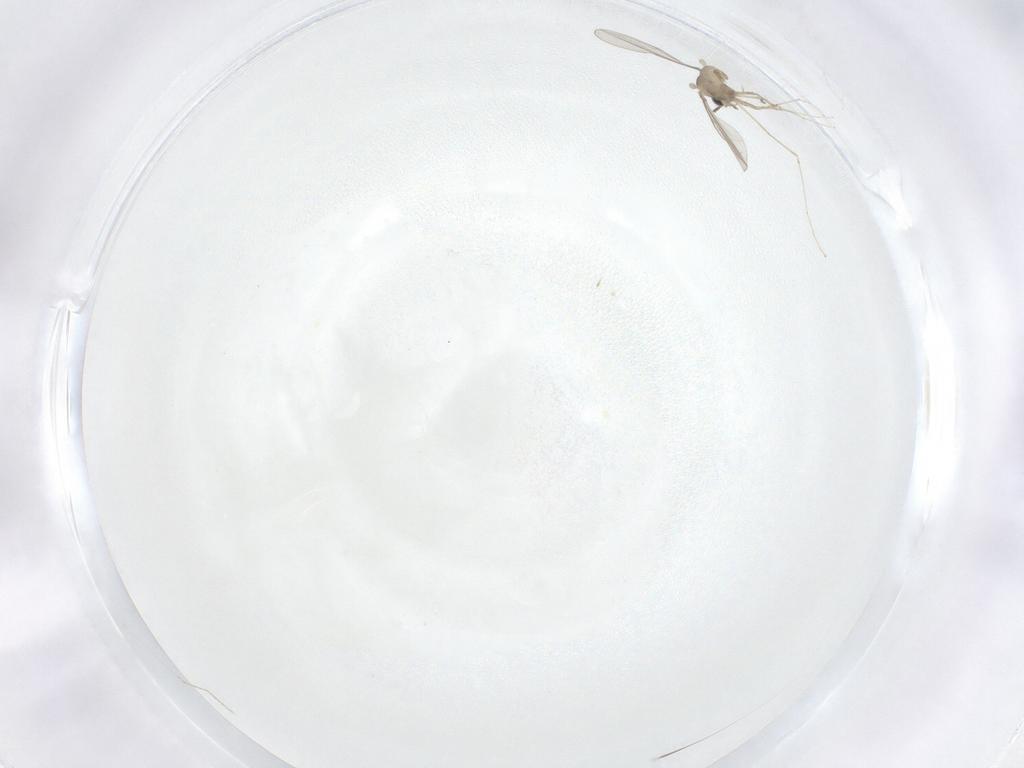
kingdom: Animalia
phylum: Arthropoda
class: Insecta
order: Diptera
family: Cecidomyiidae
